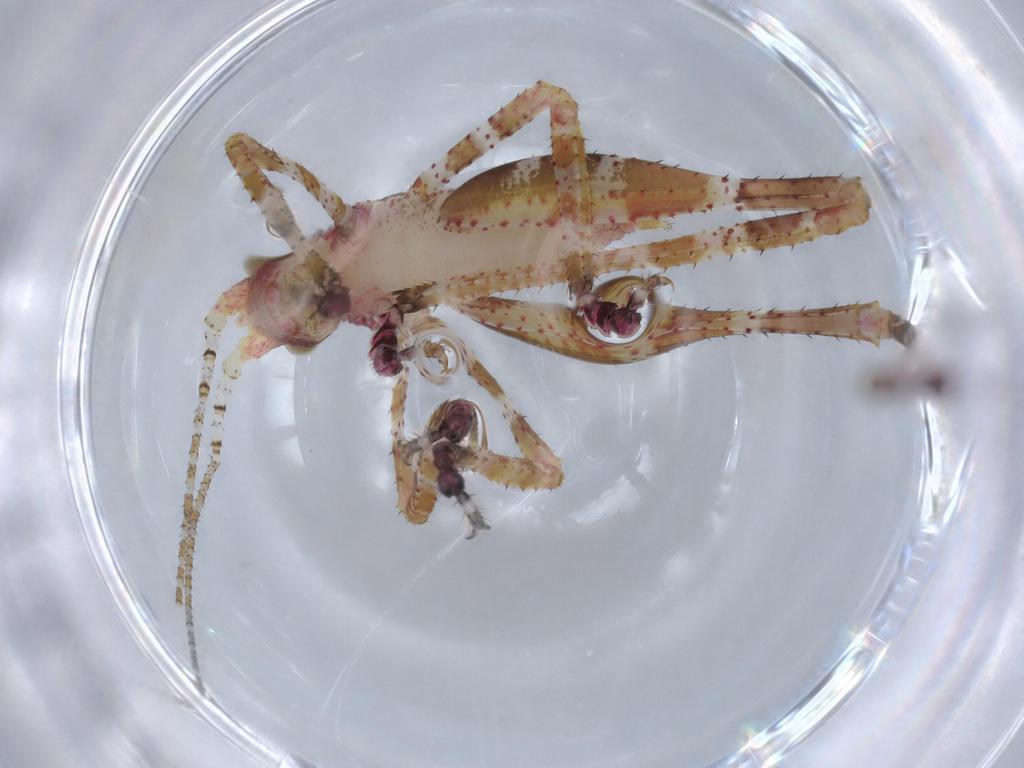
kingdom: Animalia
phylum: Arthropoda
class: Insecta
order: Orthoptera
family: Tettigoniidae
